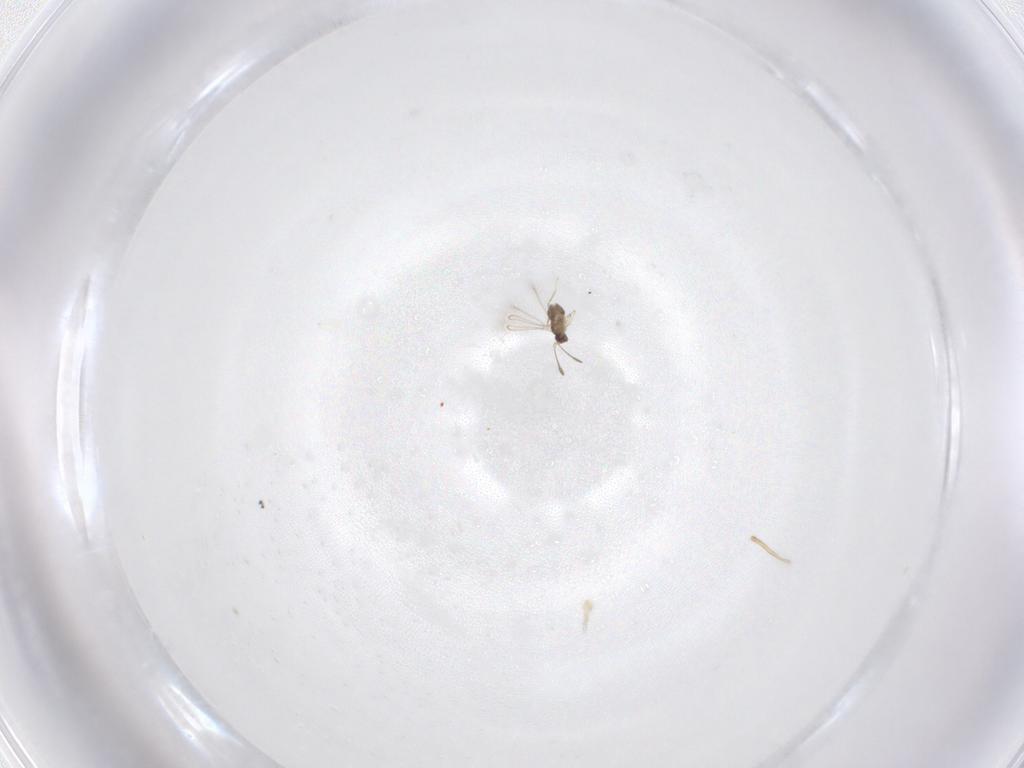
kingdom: Animalia
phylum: Arthropoda
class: Insecta
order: Hymenoptera
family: Mymaridae
